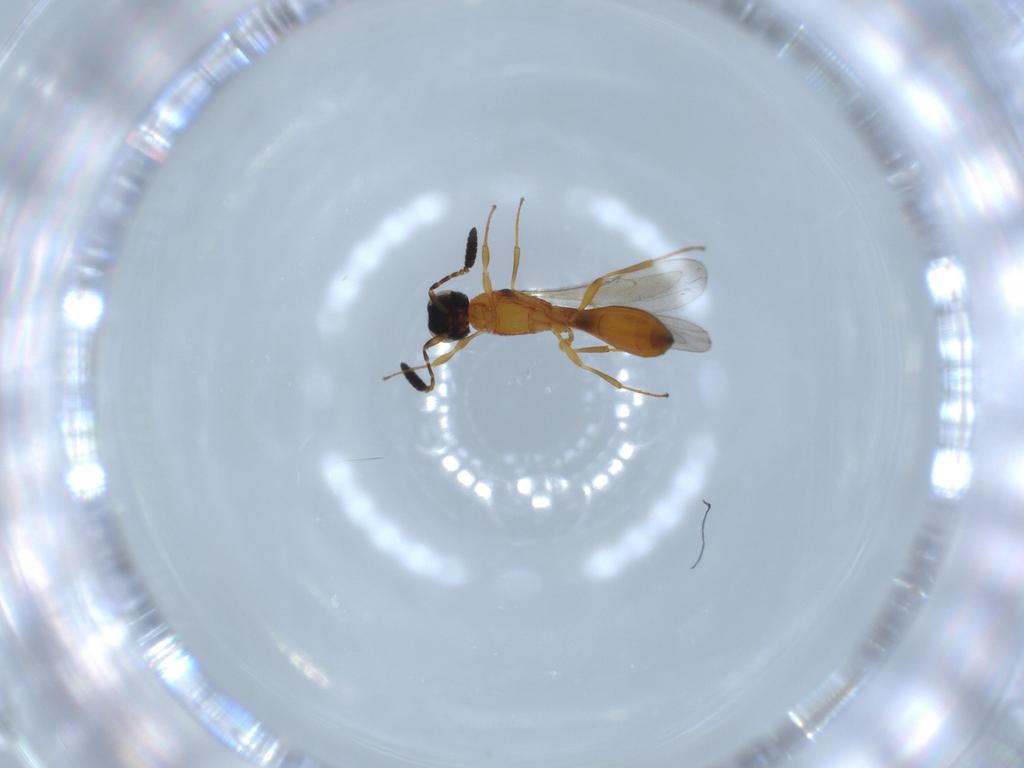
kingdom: Animalia
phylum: Arthropoda
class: Insecta
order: Hymenoptera
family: Scelionidae
